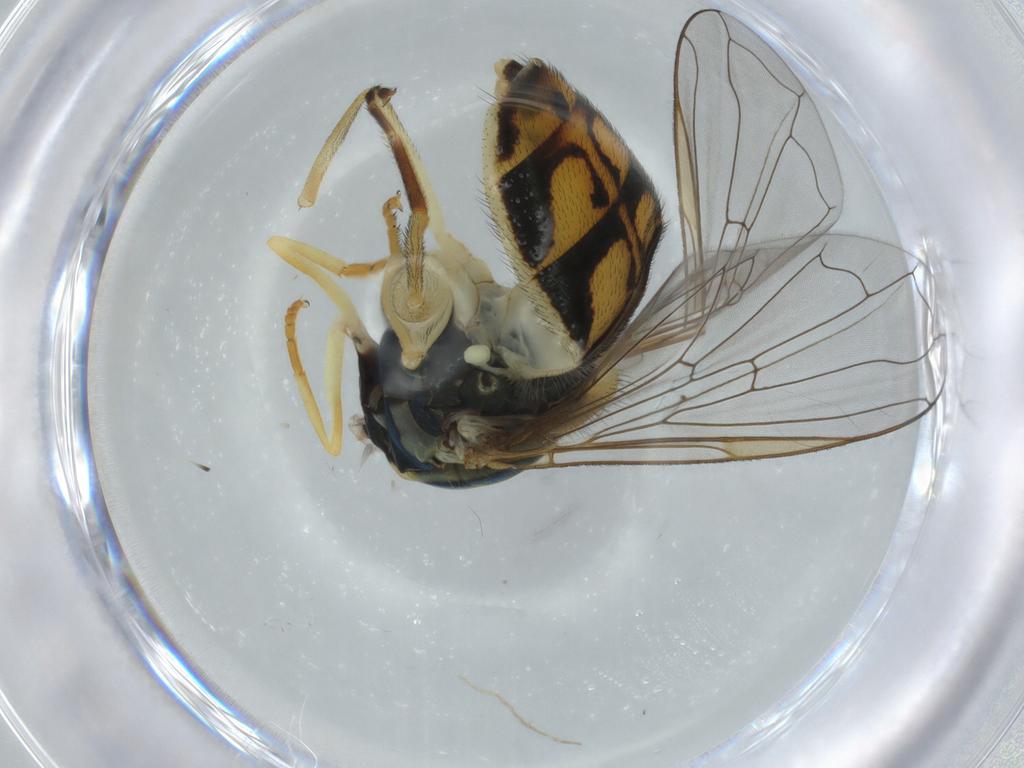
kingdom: Animalia
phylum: Arthropoda
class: Insecta
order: Diptera
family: Syrphidae
